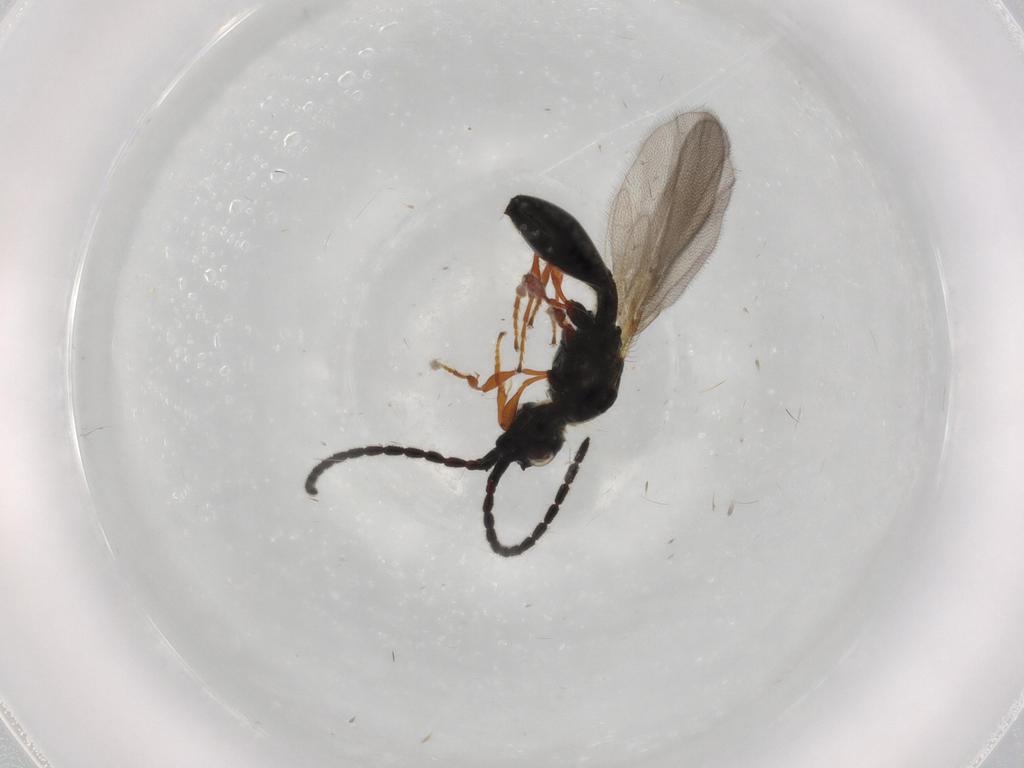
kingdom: Animalia
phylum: Arthropoda
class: Insecta
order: Hymenoptera
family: Diapriidae
